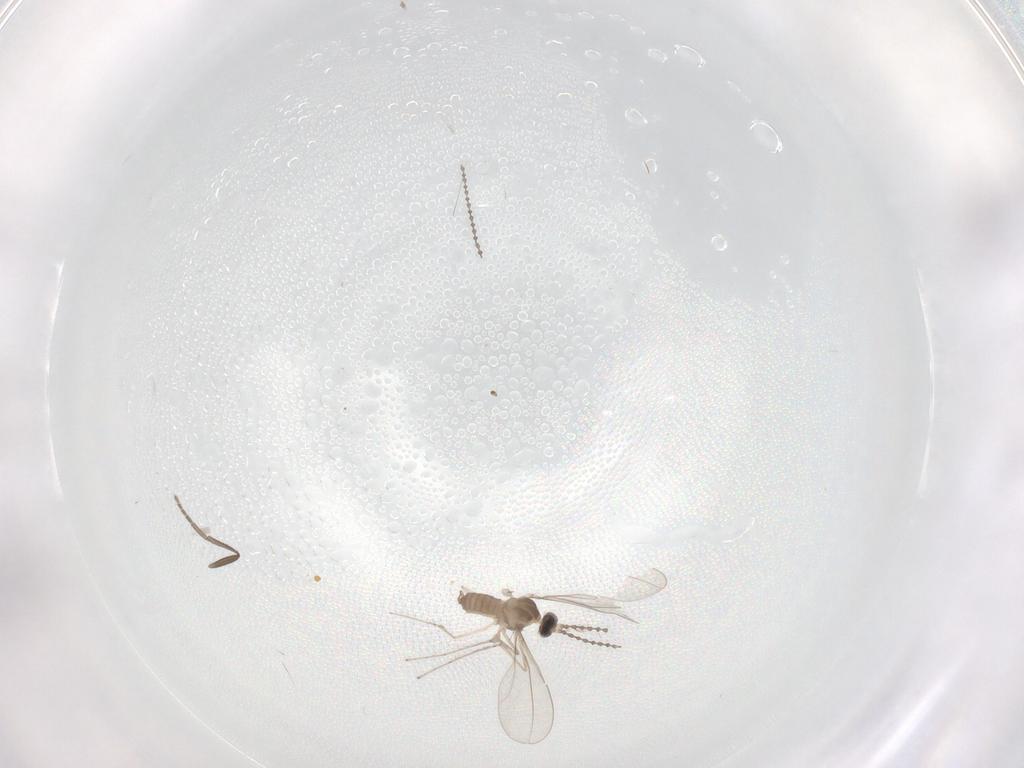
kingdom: Animalia
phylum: Arthropoda
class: Insecta
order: Diptera
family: Cecidomyiidae
